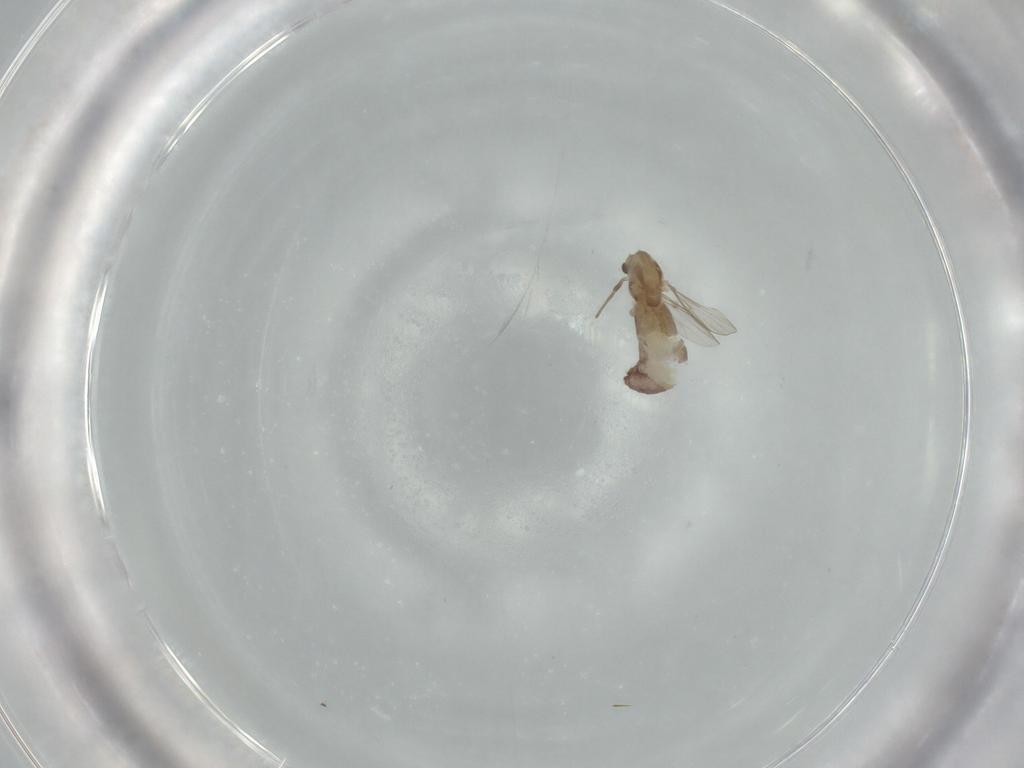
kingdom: Animalia
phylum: Arthropoda
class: Insecta
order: Diptera
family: Chironomidae
